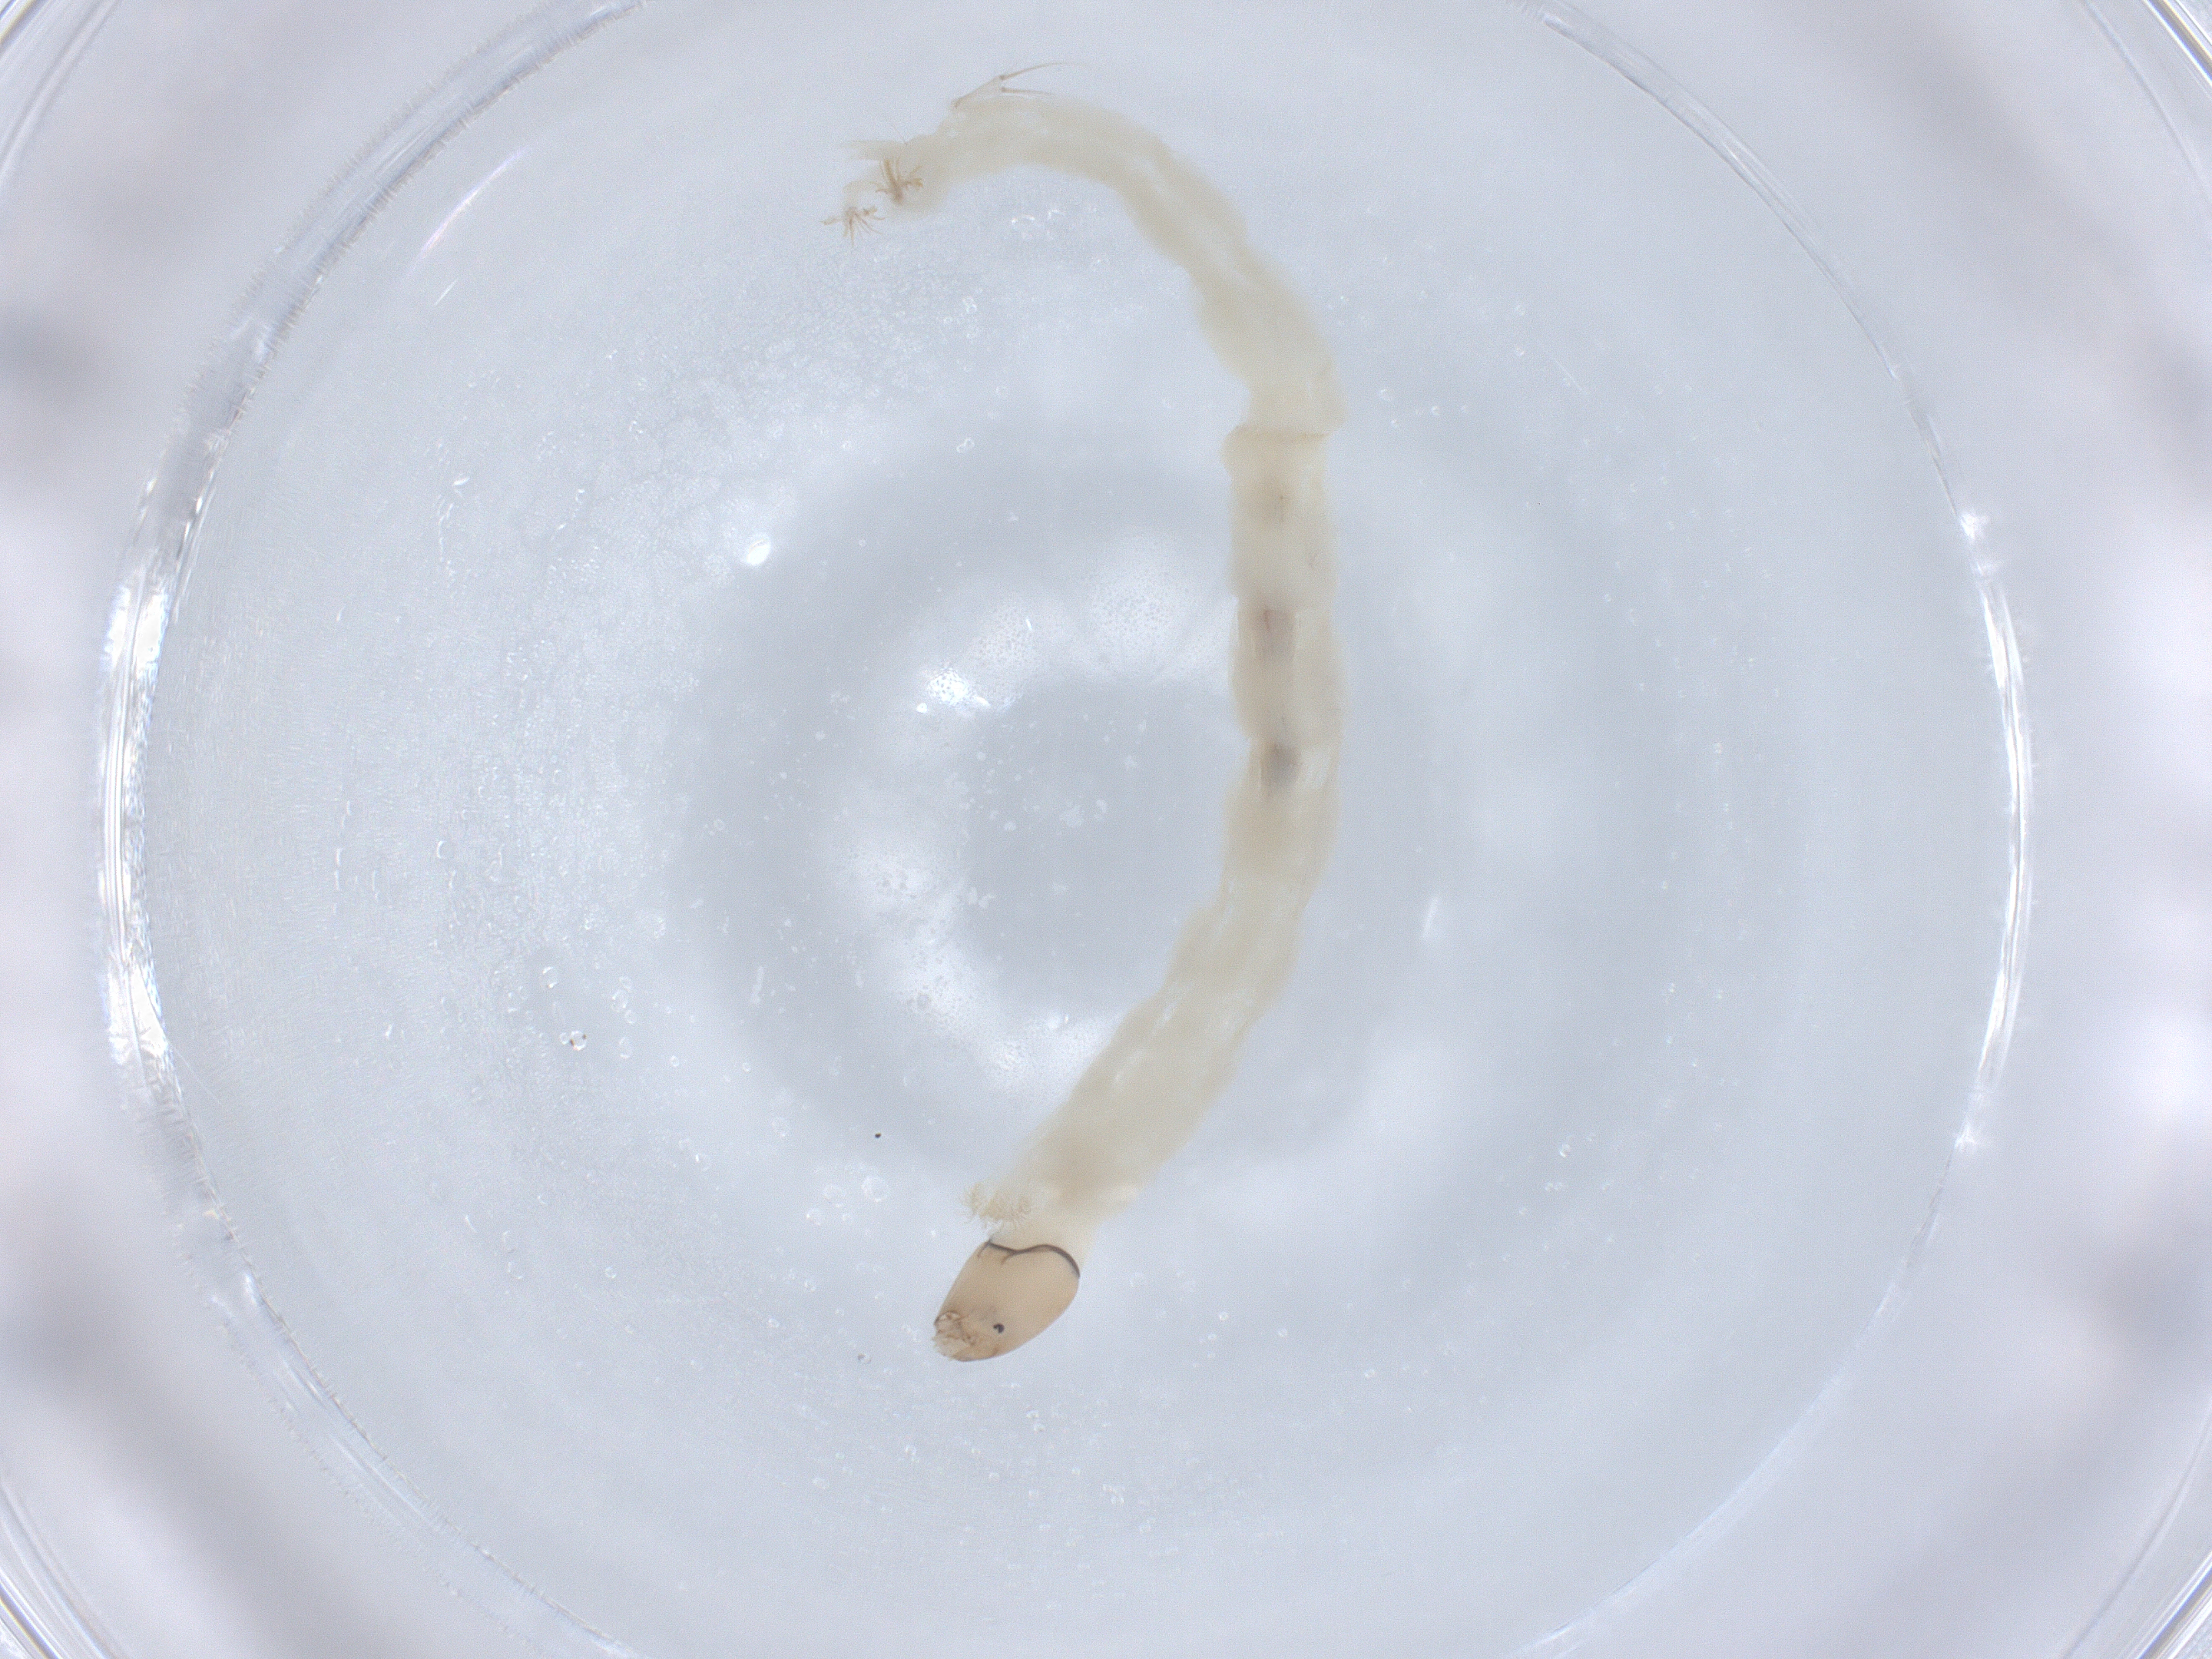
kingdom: Animalia
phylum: Arthropoda
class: Insecta
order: Diptera
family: Chironomidae
